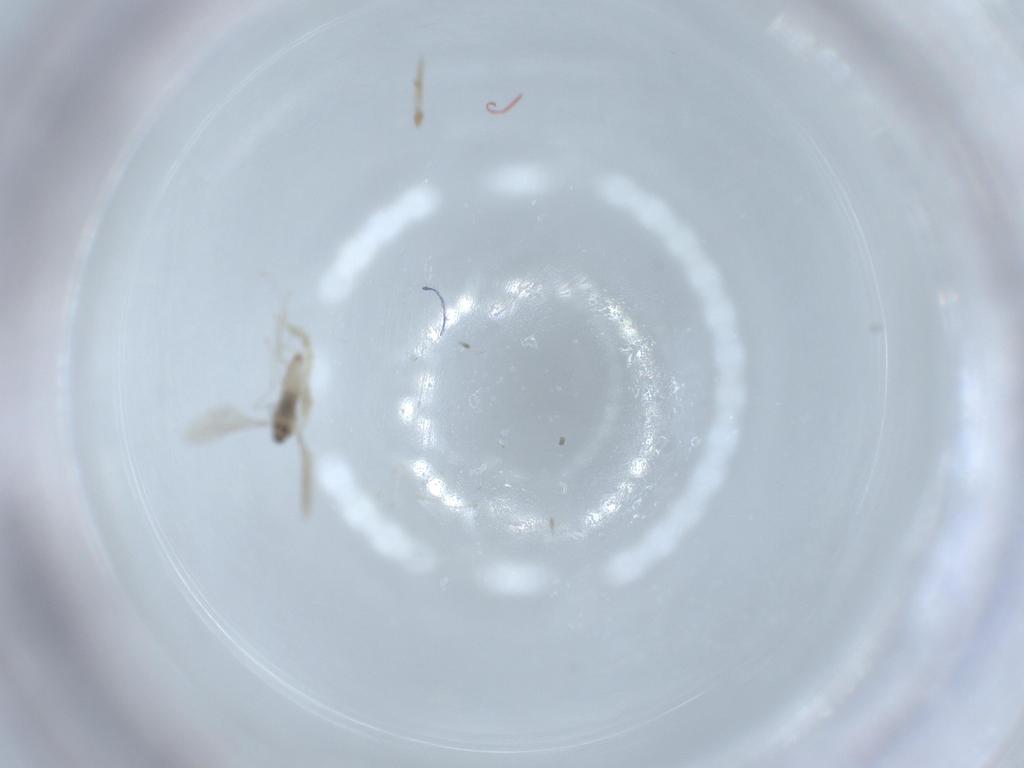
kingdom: Animalia
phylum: Arthropoda
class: Insecta
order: Diptera
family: Cecidomyiidae
